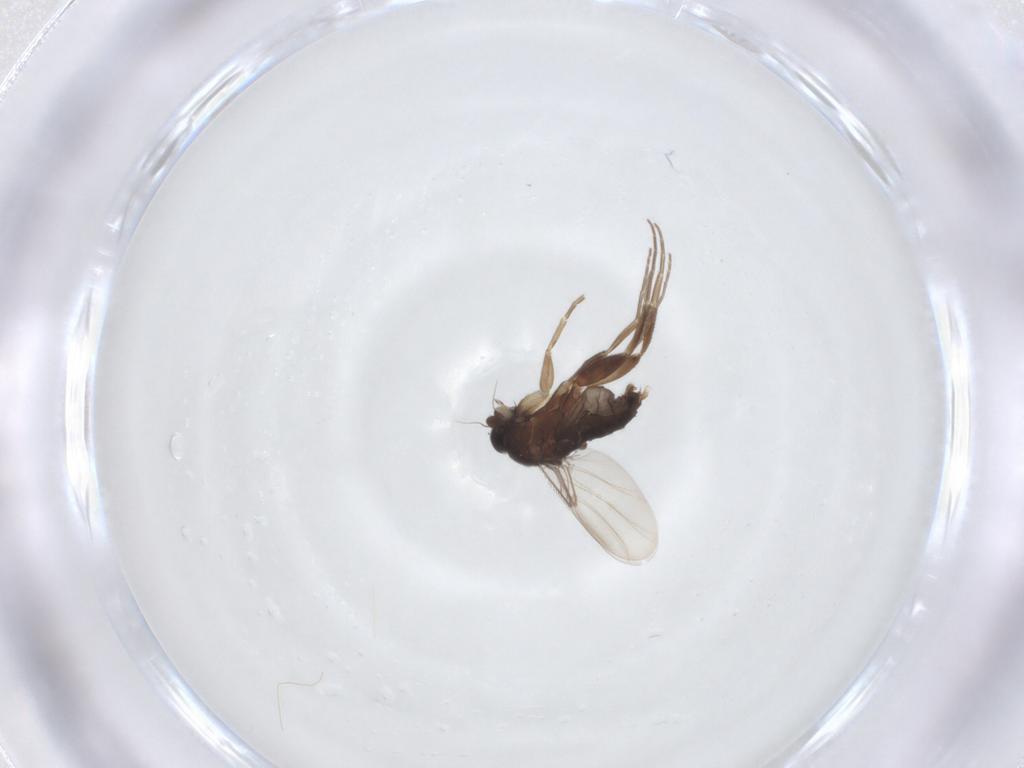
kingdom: Animalia
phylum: Arthropoda
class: Insecta
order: Diptera
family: Phoridae
